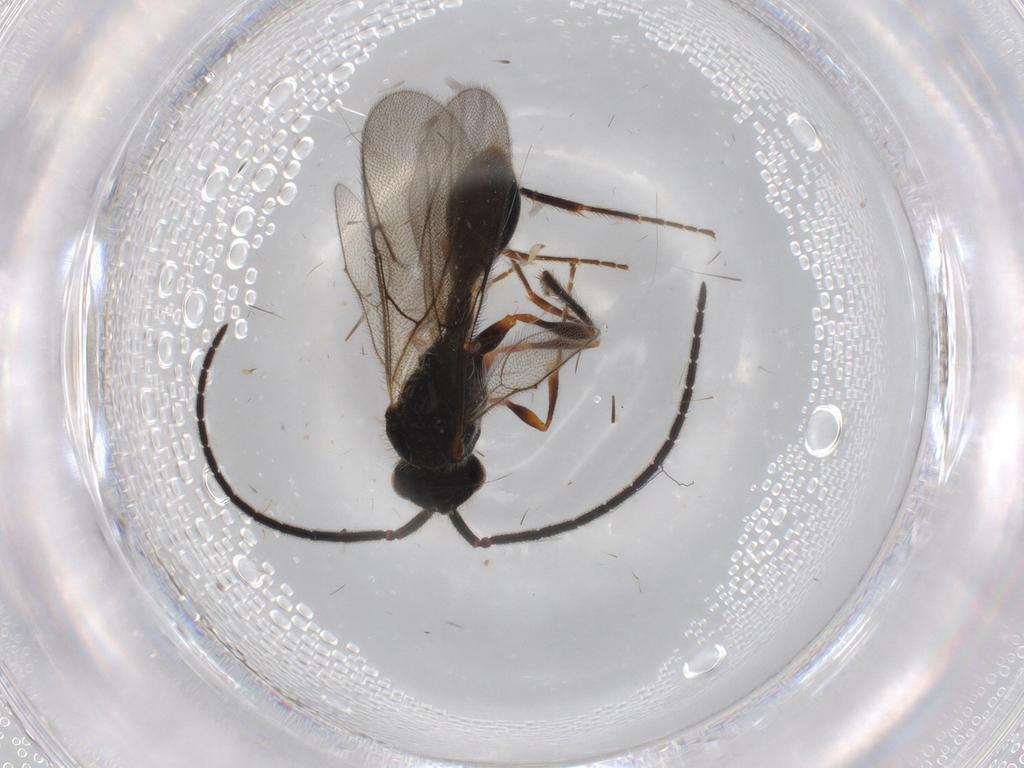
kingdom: Animalia
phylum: Arthropoda
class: Insecta
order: Hymenoptera
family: Formicidae
